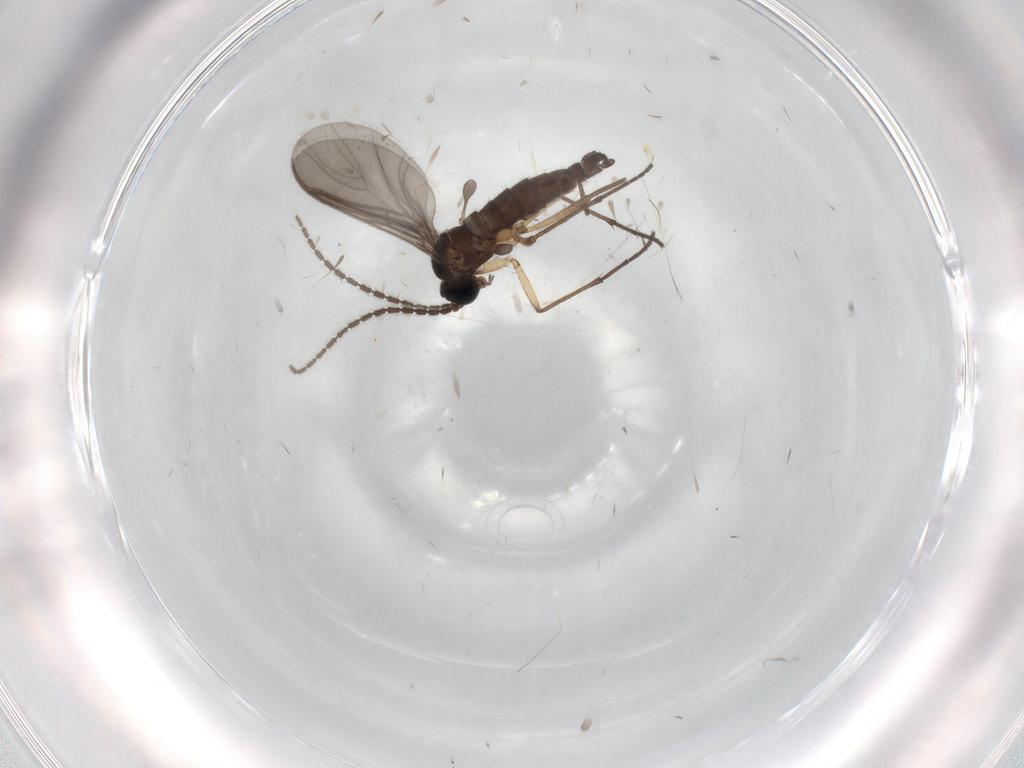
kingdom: Animalia
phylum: Arthropoda
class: Insecta
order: Diptera
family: Sciaridae
